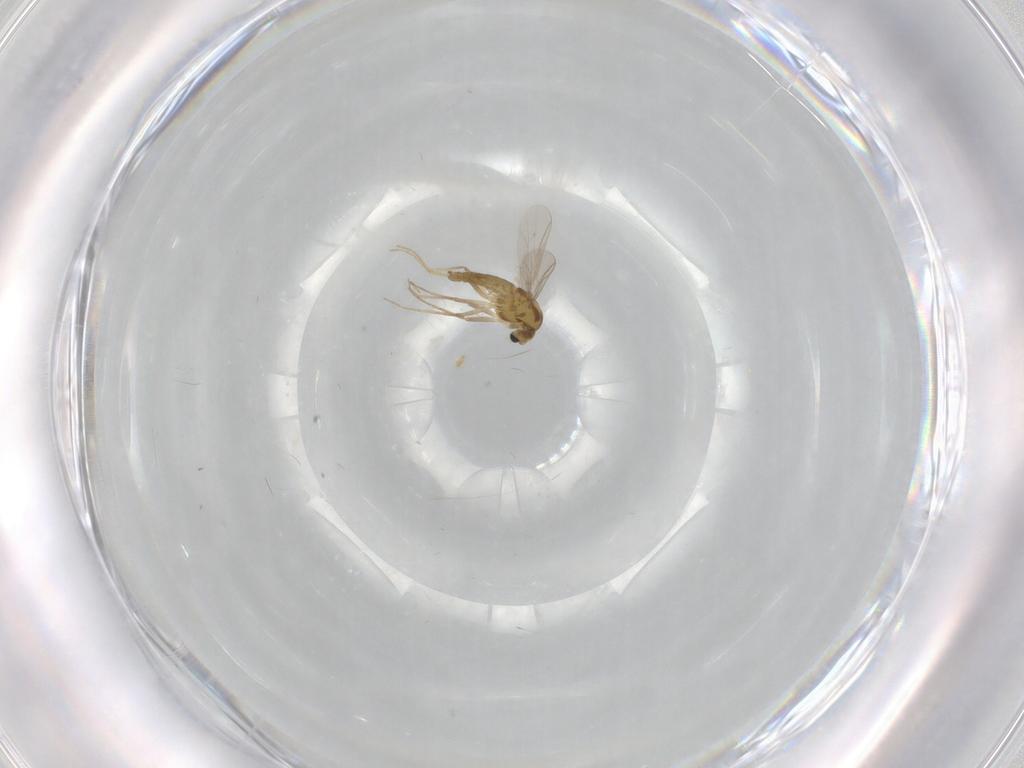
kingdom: Animalia
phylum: Arthropoda
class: Insecta
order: Diptera
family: Chironomidae
